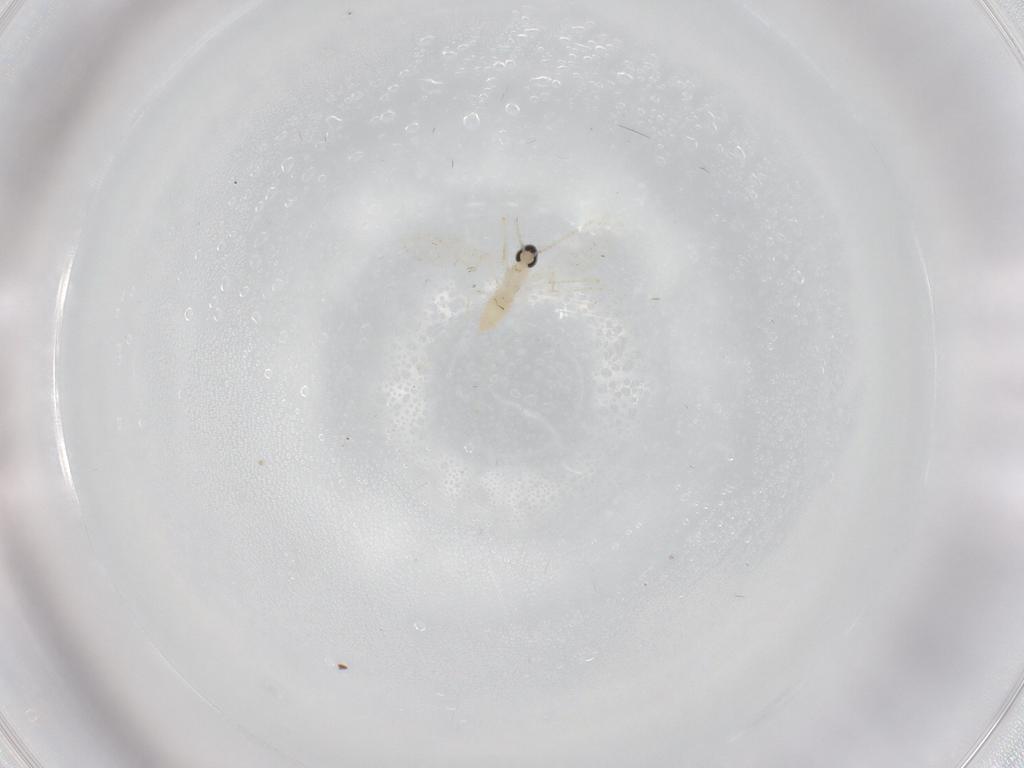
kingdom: Animalia
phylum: Arthropoda
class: Insecta
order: Diptera
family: Cecidomyiidae
